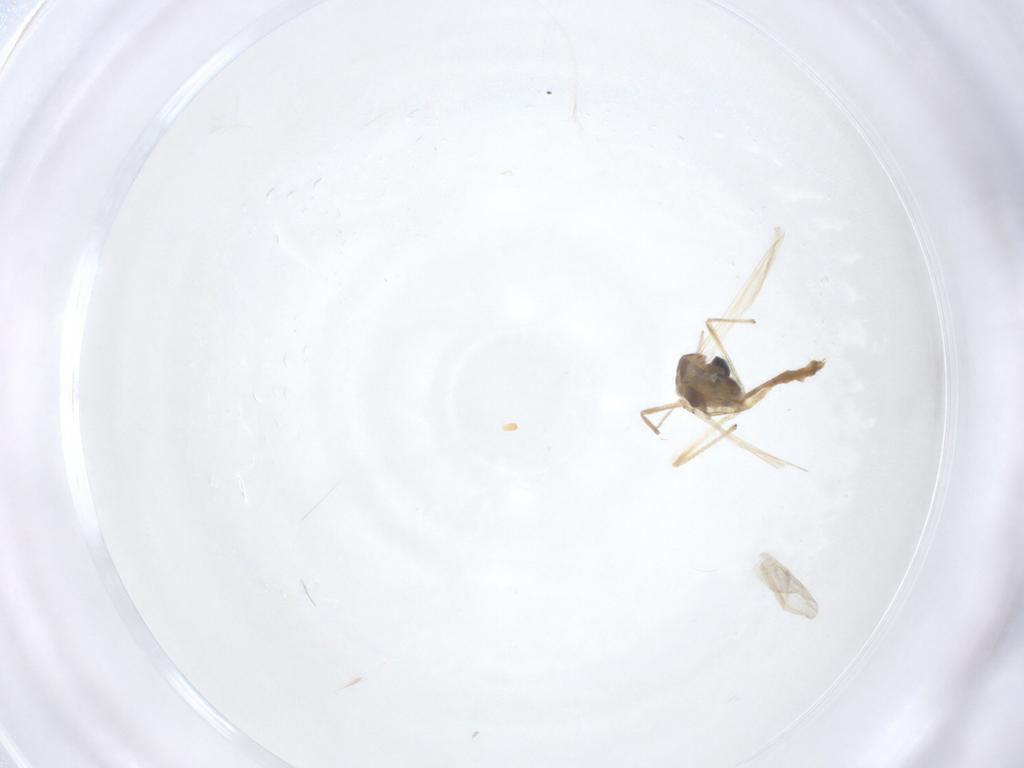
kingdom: Animalia
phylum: Arthropoda
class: Insecta
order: Diptera
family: Chironomidae
